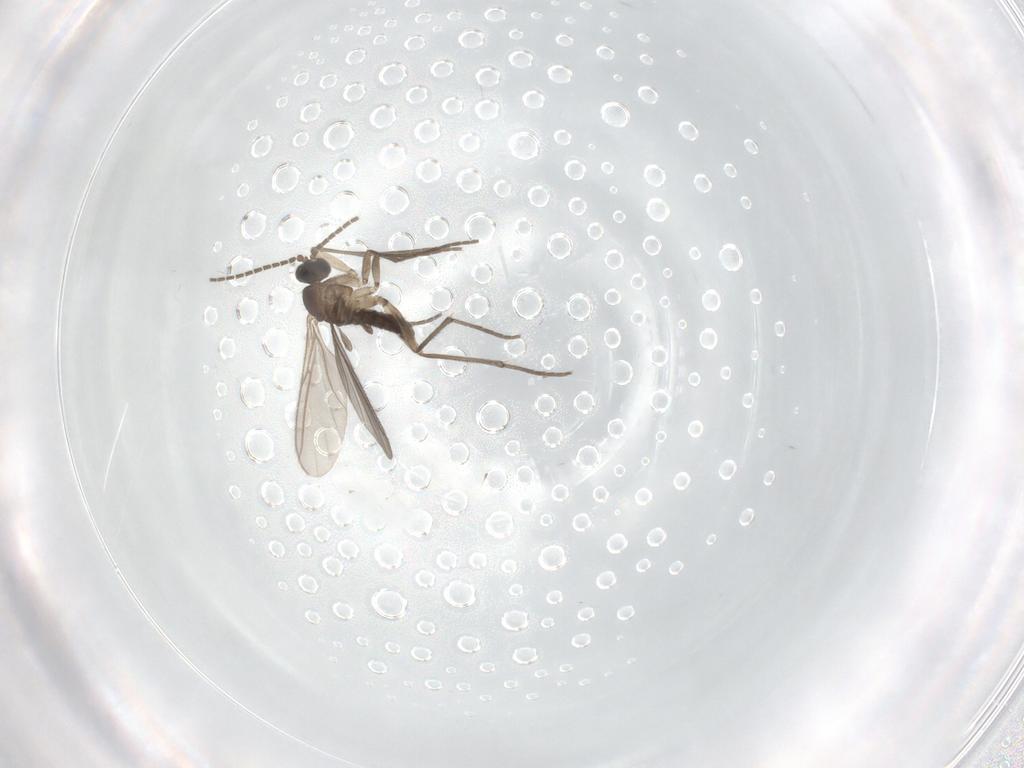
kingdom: Animalia
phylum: Arthropoda
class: Insecta
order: Diptera
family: Sciaridae
